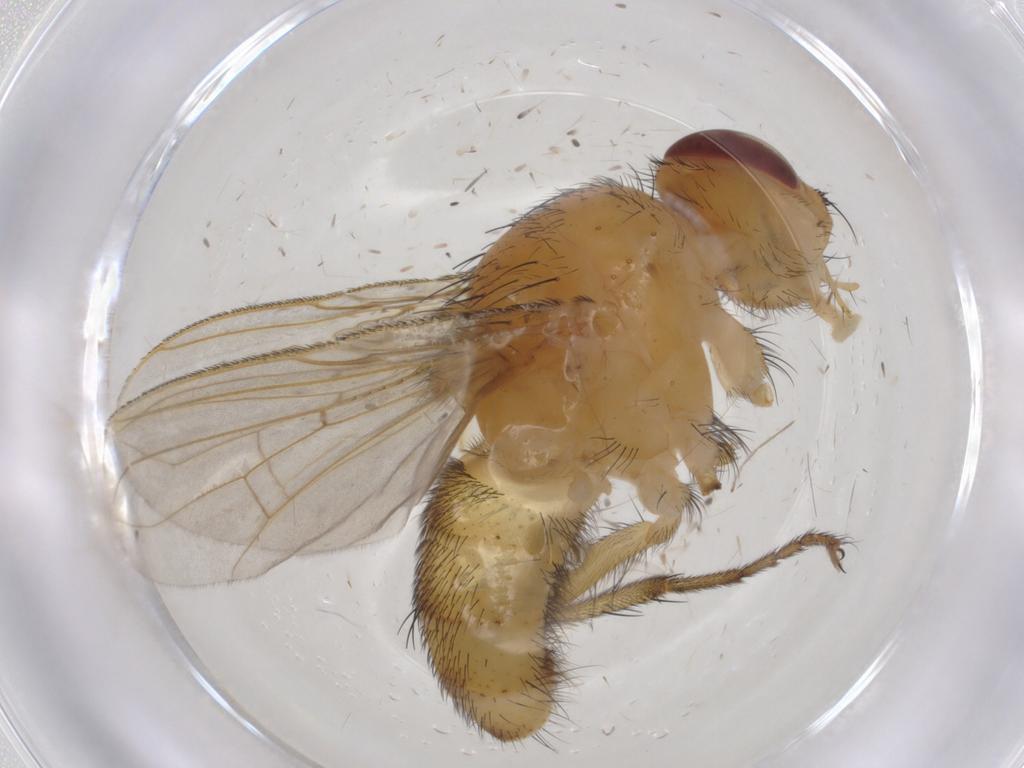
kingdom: Animalia
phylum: Arthropoda
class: Insecta
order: Diptera
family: Tachinidae
